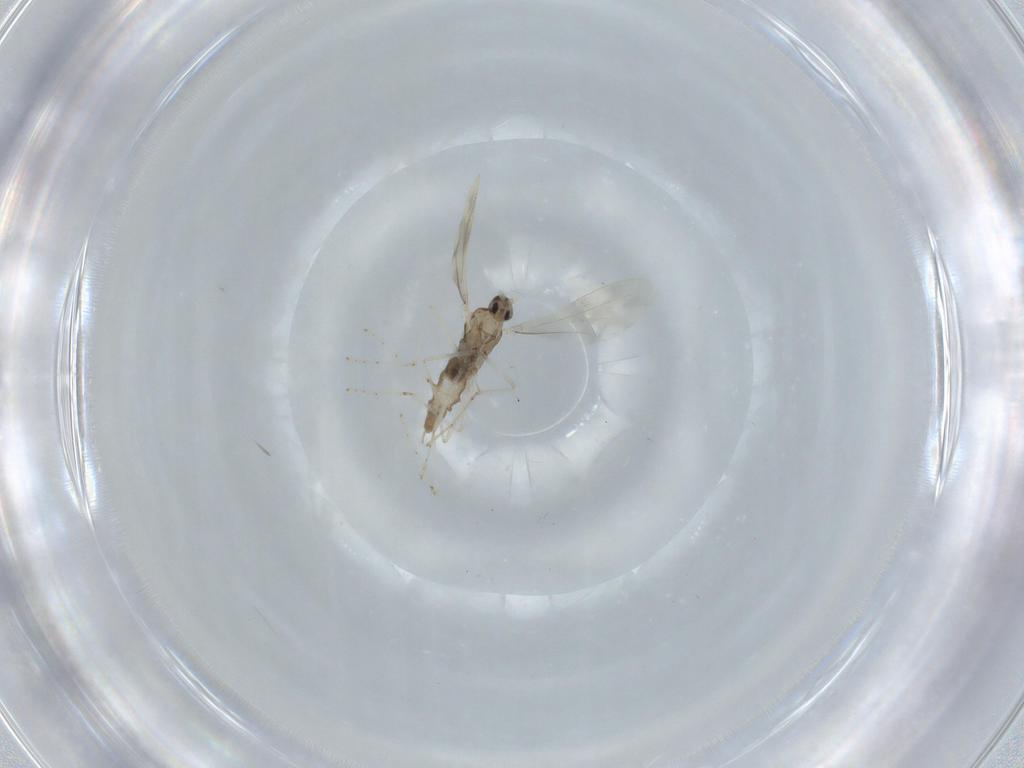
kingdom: Animalia
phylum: Arthropoda
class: Insecta
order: Diptera
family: Cecidomyiidae
